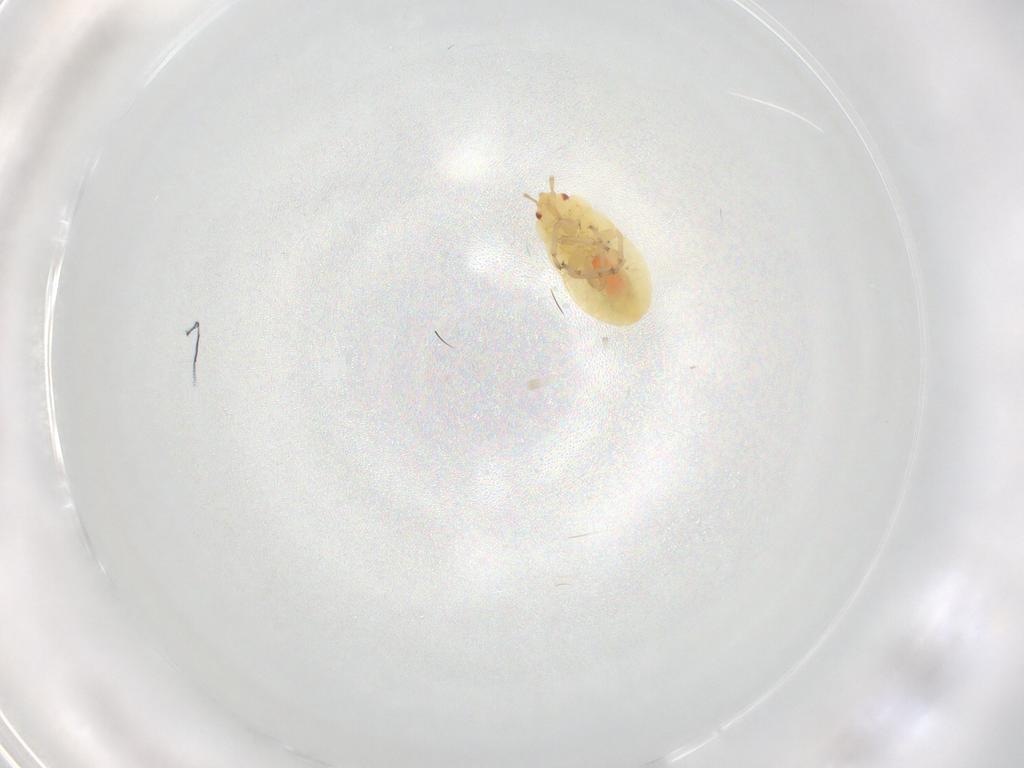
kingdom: Animalia
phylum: Arthropoda
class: Insecta
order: Hemiptera
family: Anthocoridae
